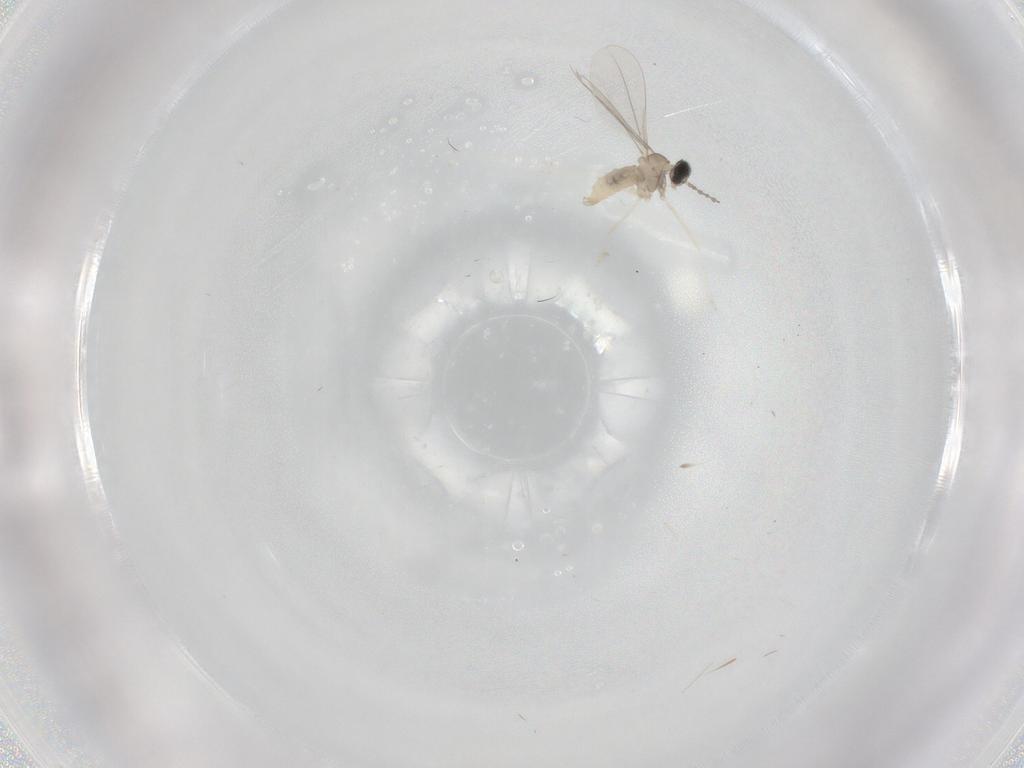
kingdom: Animalia
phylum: Arthropoda
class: Insecta
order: Diptera
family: Cecidomyiidae
